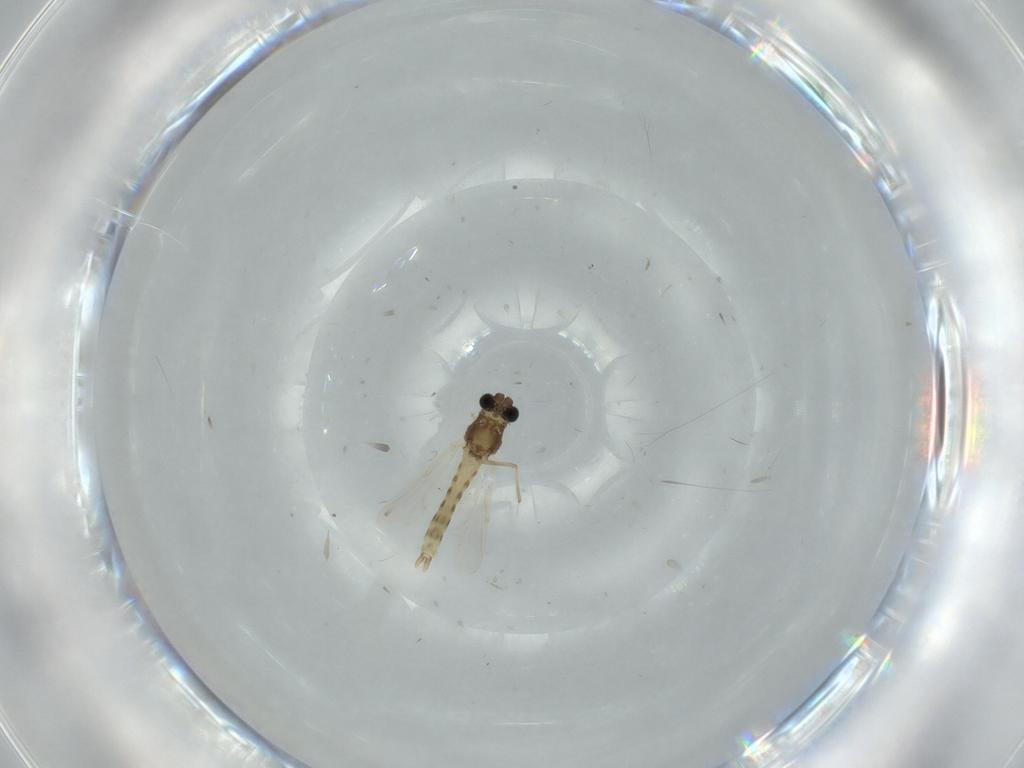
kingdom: Animalia
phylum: Arthropoda
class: Insecta
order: Diptera
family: Chironomidae
